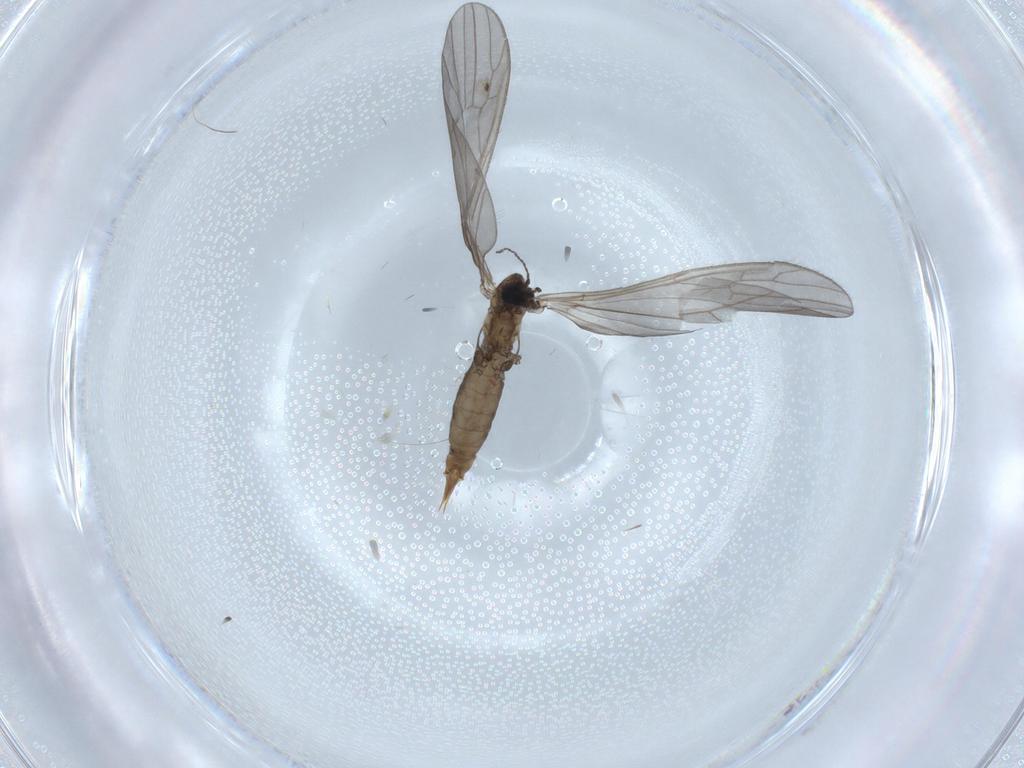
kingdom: Animalia
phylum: Arthropoda
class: Insecta
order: Diptera
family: Limoniidae
